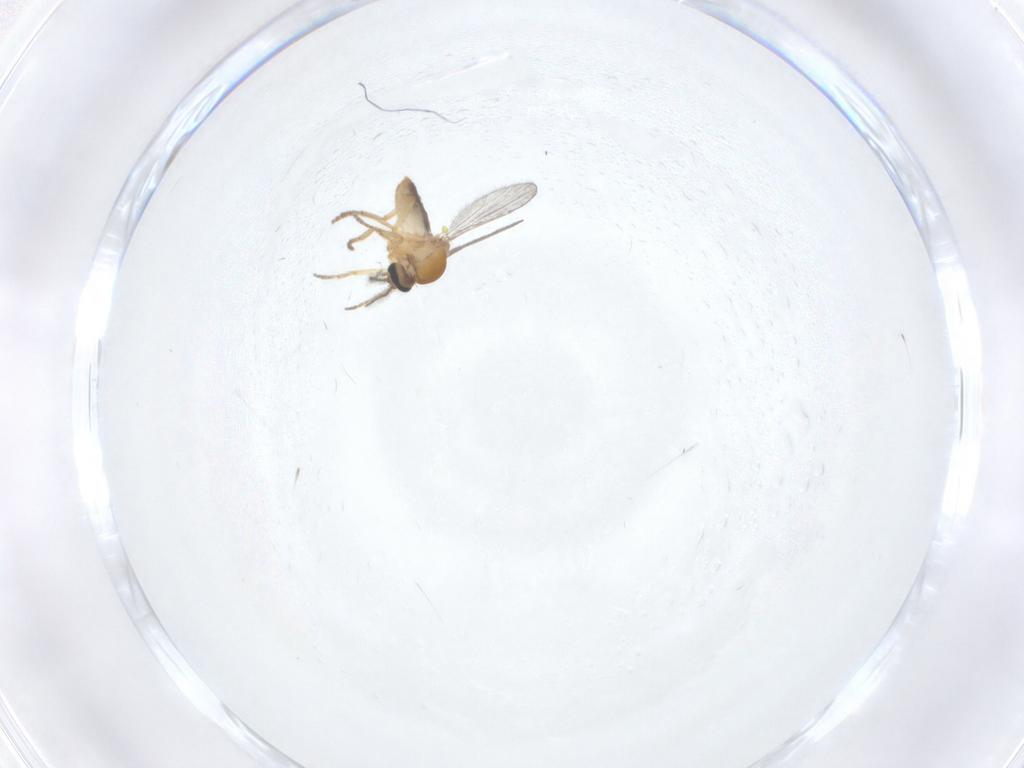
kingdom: Animalia
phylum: Arthropoda
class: Insecta
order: Diptera
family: Ceratopogonidae
